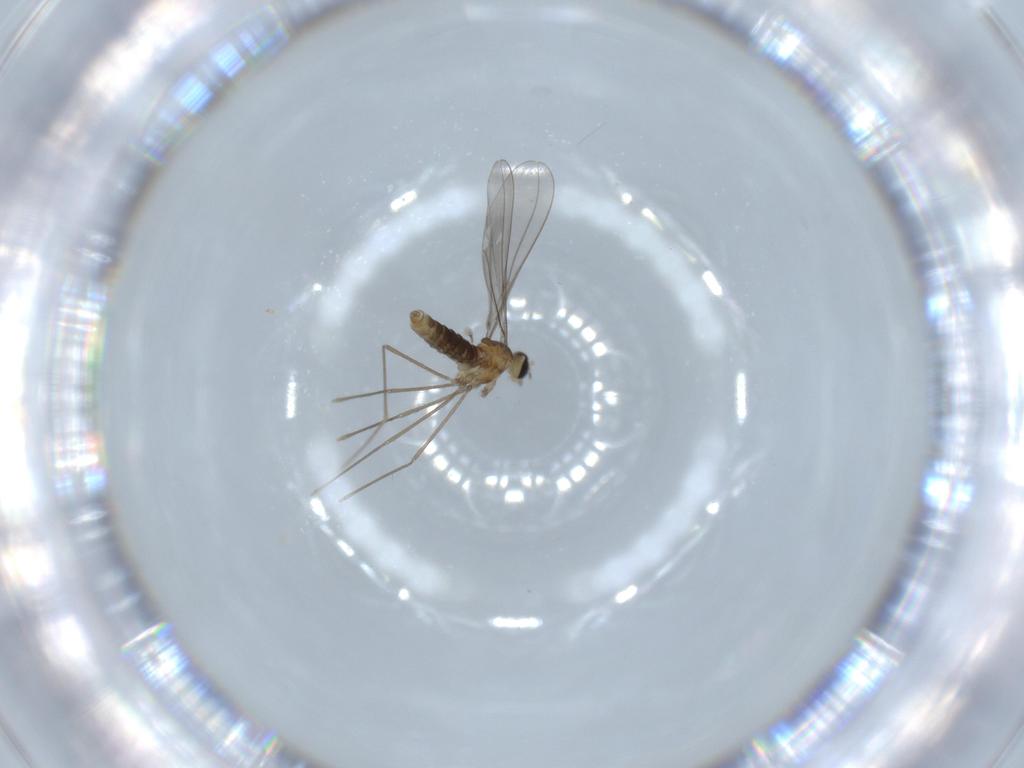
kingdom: Animalia
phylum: Arthropoda
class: Insecta
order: Diptera
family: Cecidomyiidae
